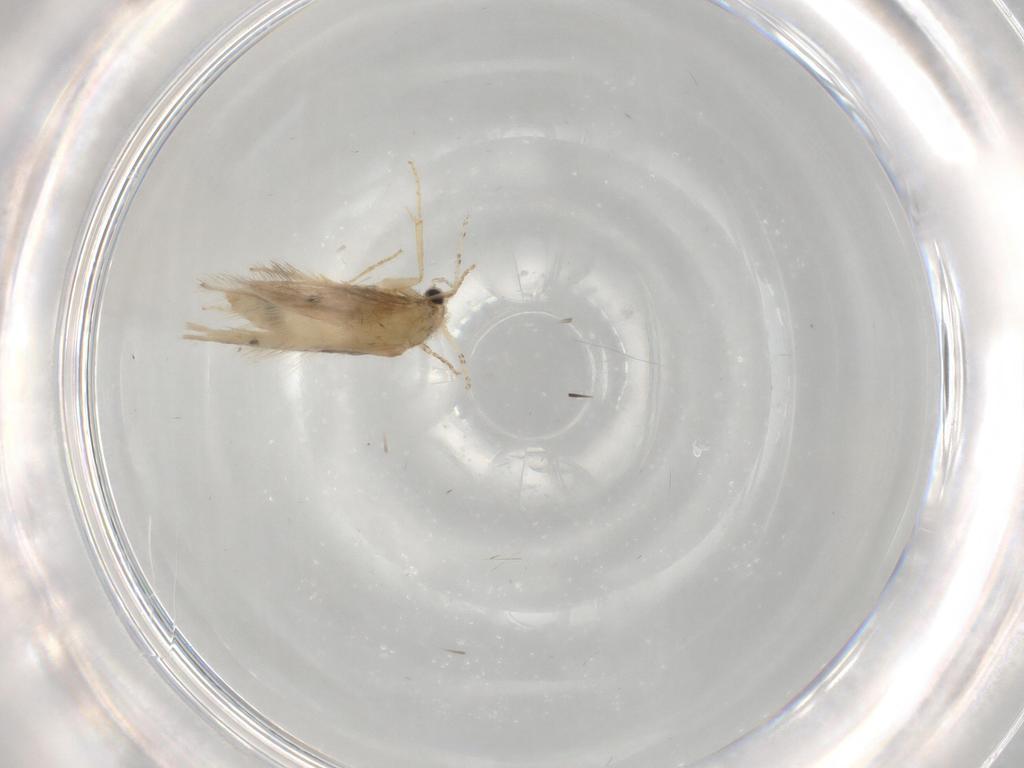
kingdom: Animalia
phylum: Arthropoda
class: Insecta
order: Trichoptera
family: Hydroptilidae
